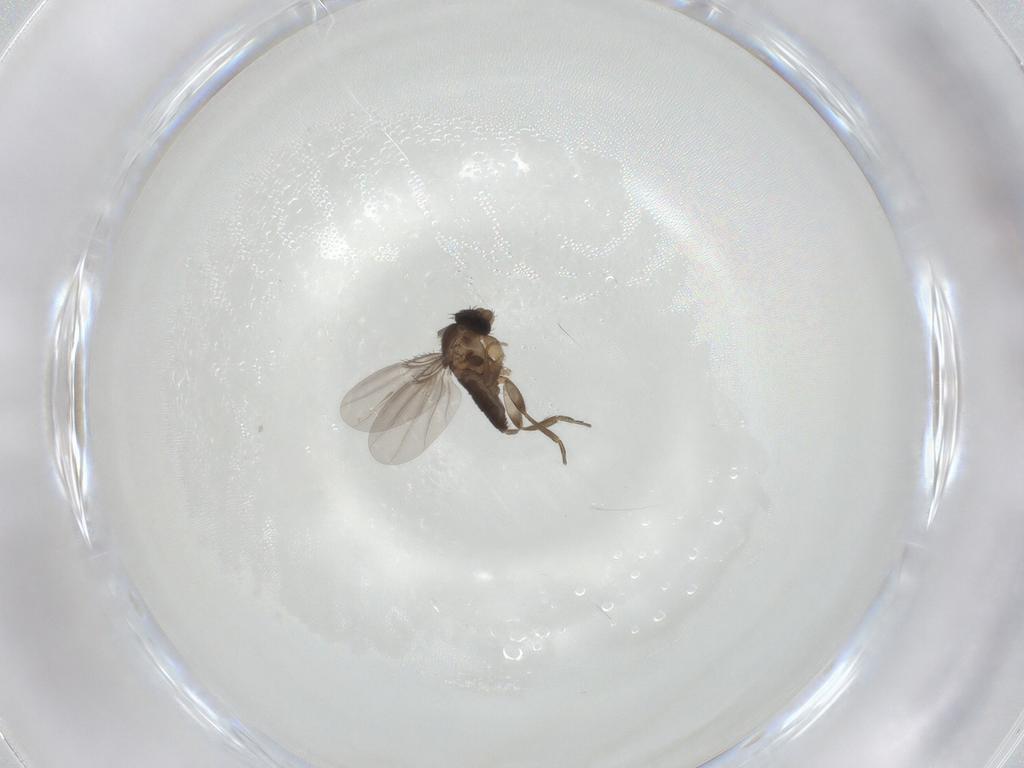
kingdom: Animalia
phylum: Arthropoda
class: Insecta
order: Diptera
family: Phoridae
